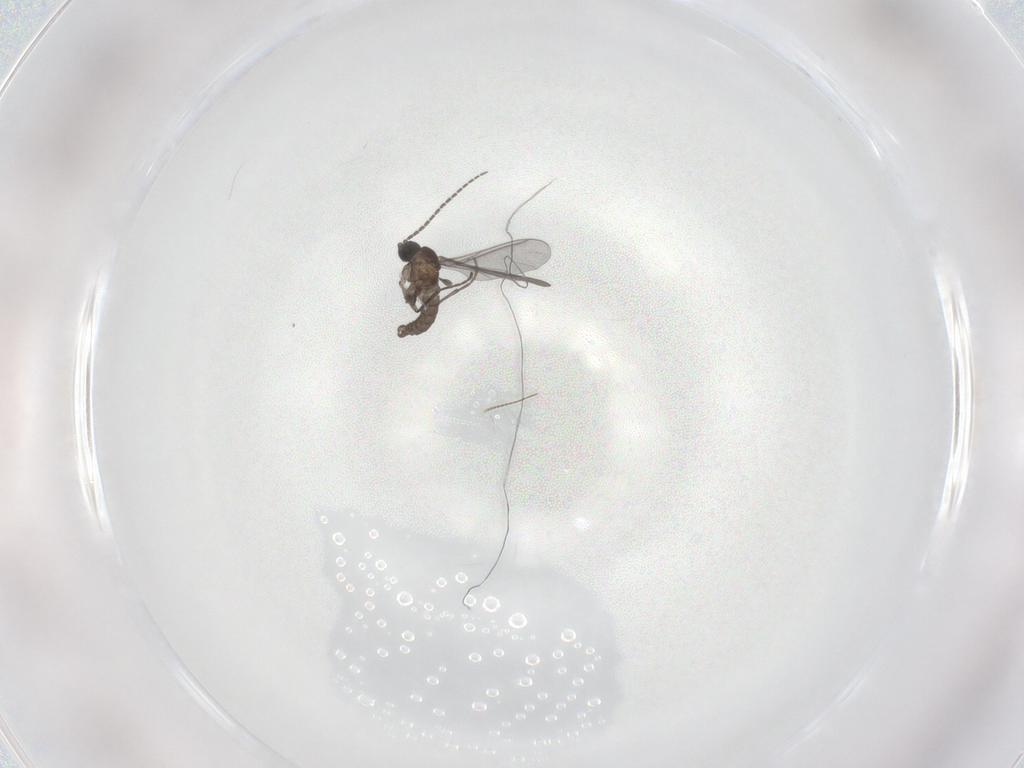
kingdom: Animalia
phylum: Arthropoda
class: Insecta
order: Diptera
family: Sciaridae
